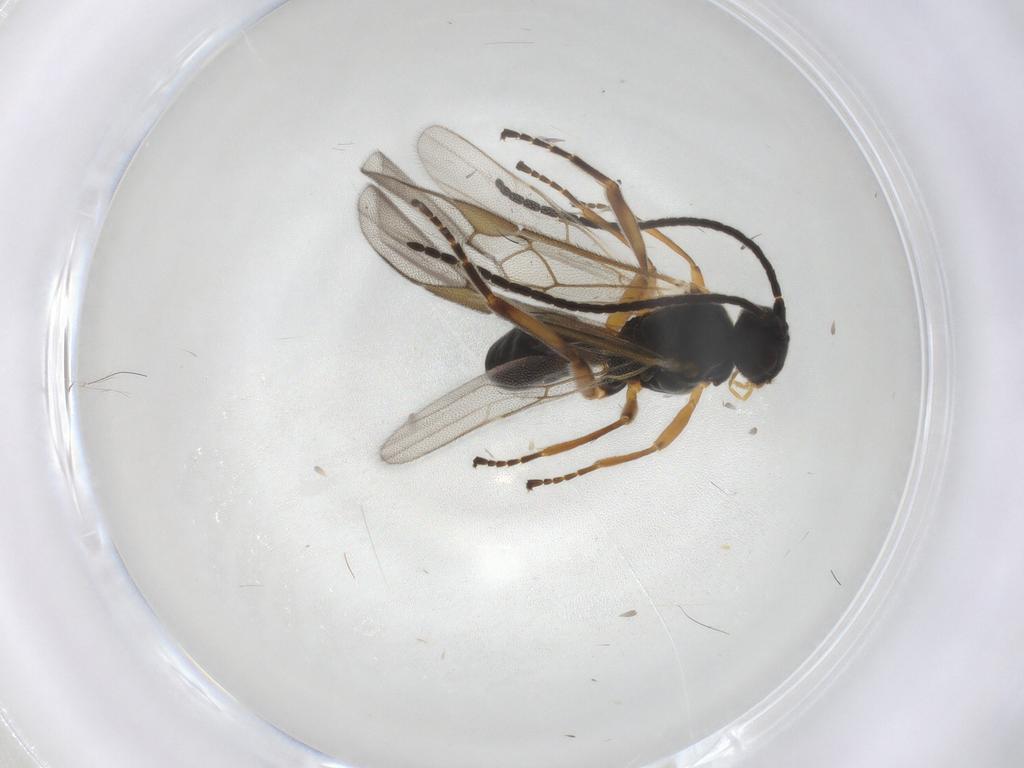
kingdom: Animalia
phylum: Arthropoda
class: Insecta
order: Hymenoptera
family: Braconidae
